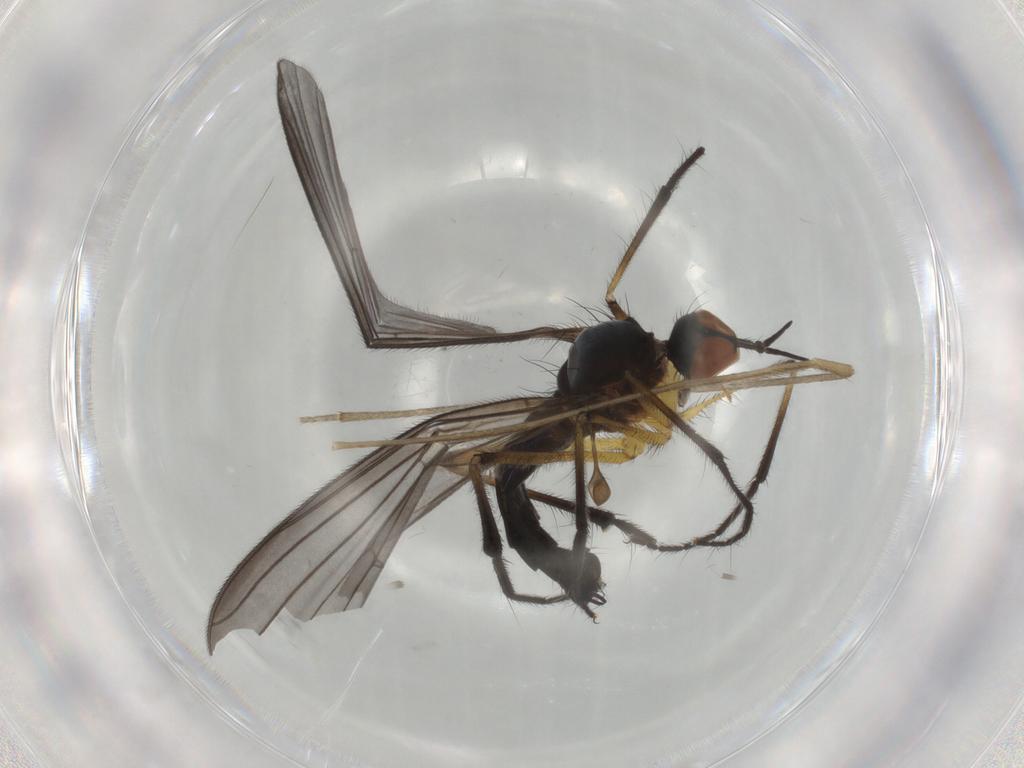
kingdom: Animalia
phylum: Arthropoda
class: Insecta
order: Diptera
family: Empididae
